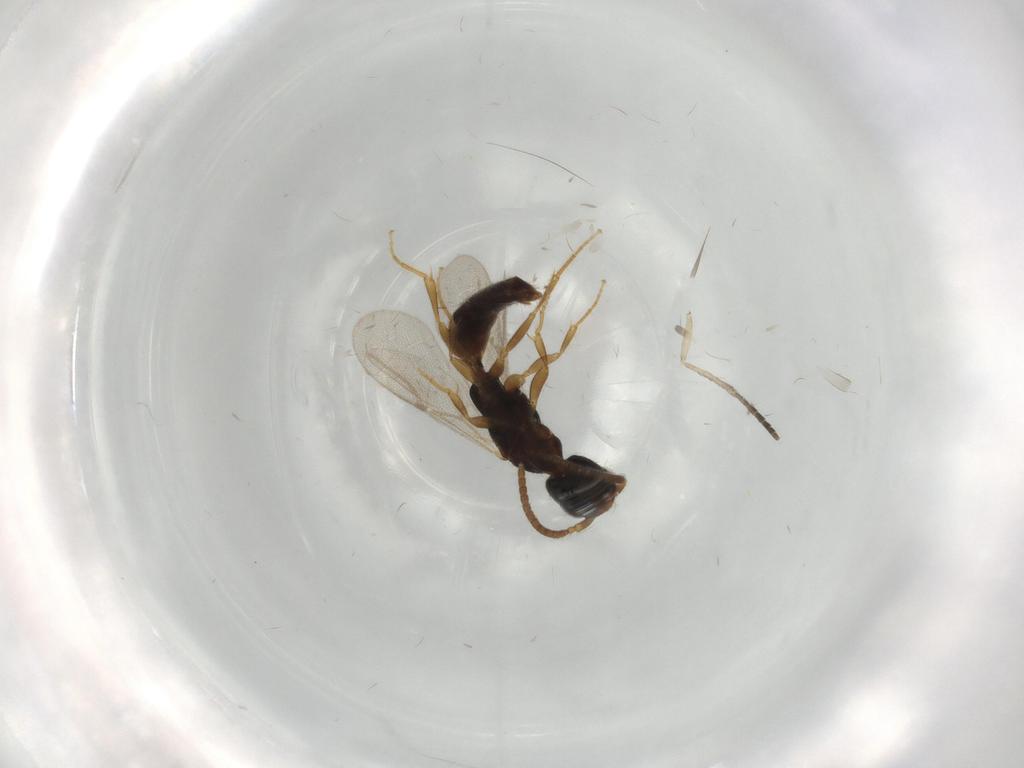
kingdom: Animalia
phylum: Arthropoda
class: Insecta
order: Hymenoptera
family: Bethylidae
